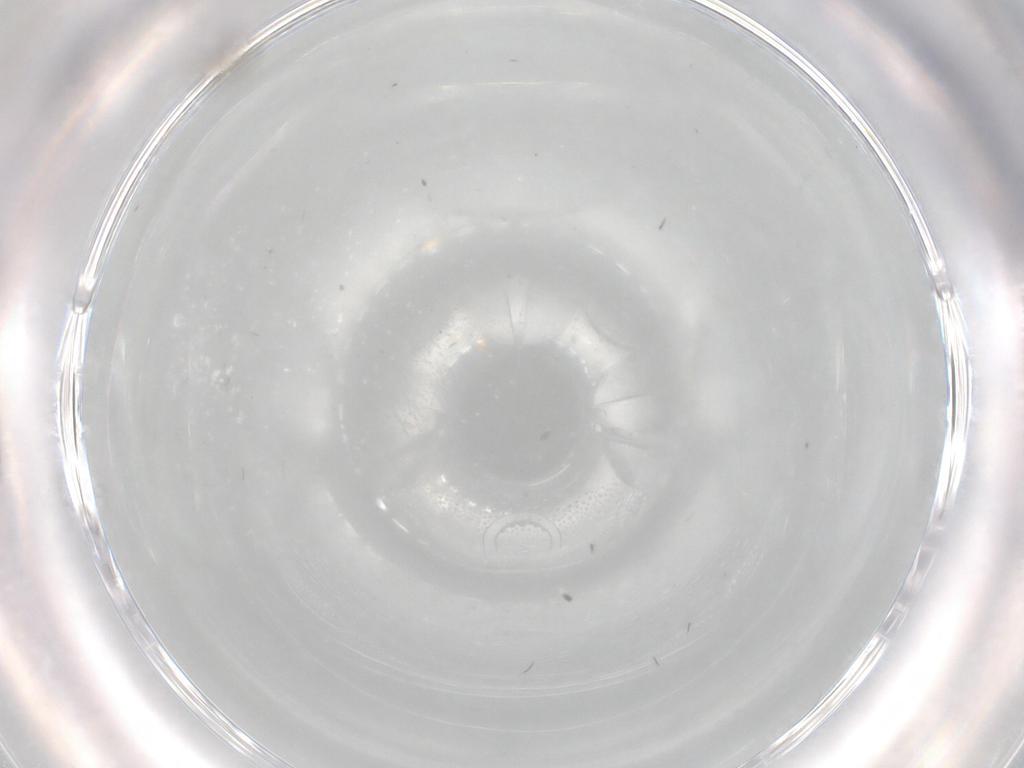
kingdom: Animalia
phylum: Arthropoda
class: Insecta
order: Diptera
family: Cecidomyiidae
